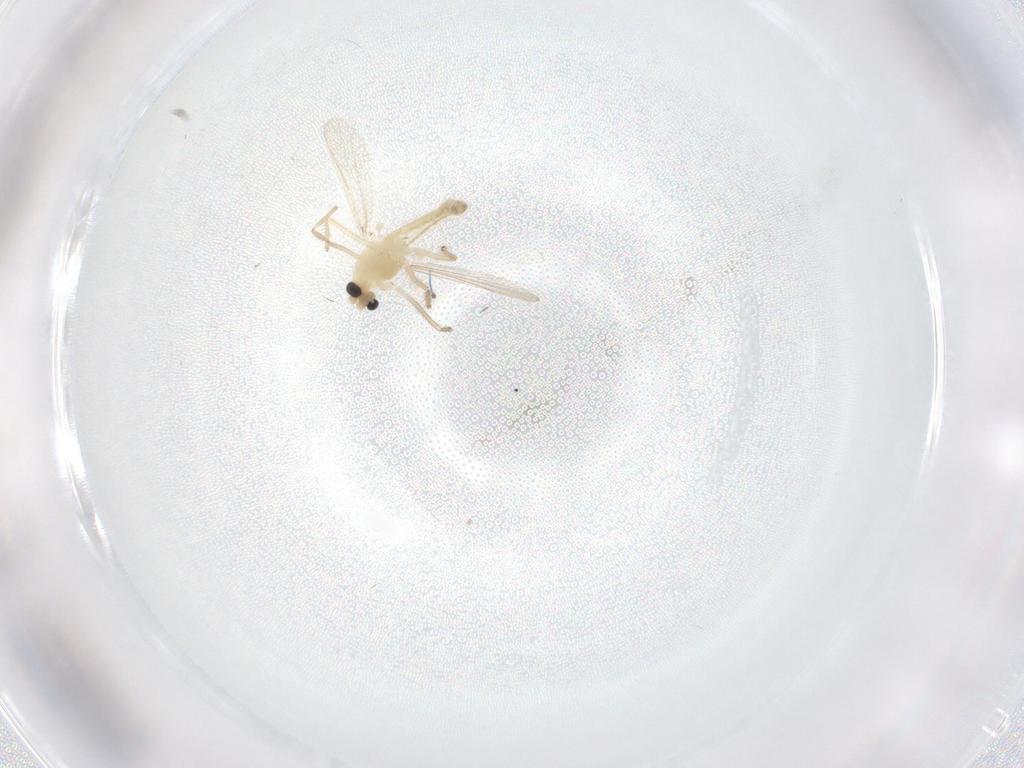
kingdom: Animalia
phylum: Arthropoda
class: Insecta
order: Diptera
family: Chironomidae
